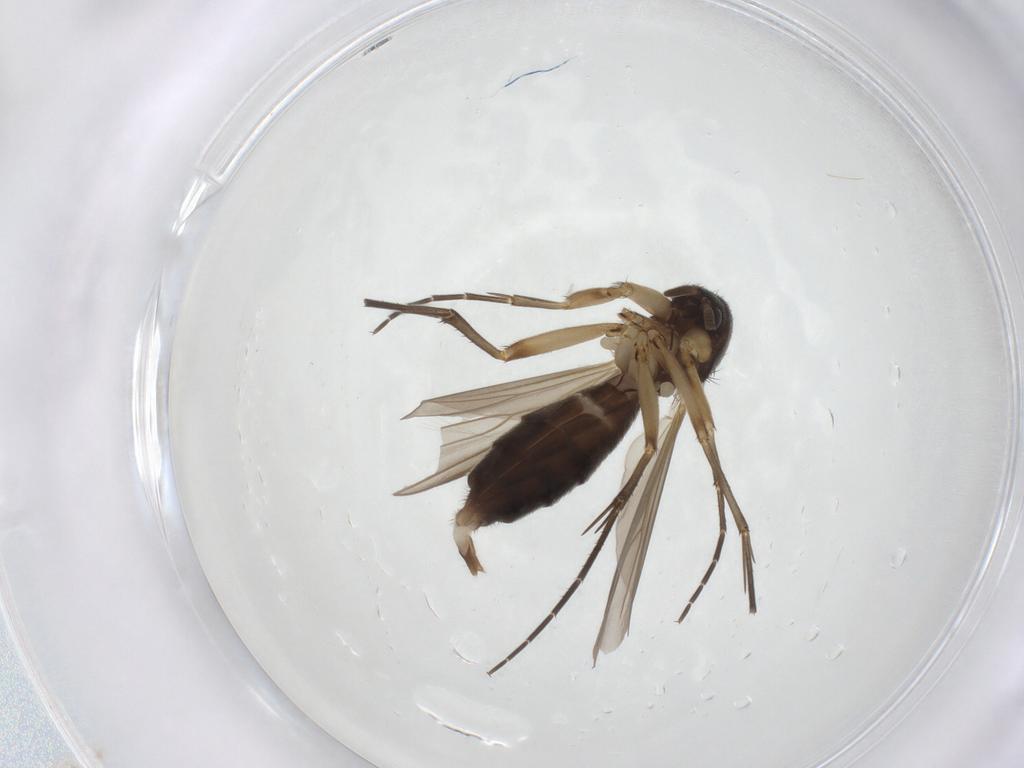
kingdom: Animalia
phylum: Arthropoda
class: Insecta
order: Diptera
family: Mycetophilidae
